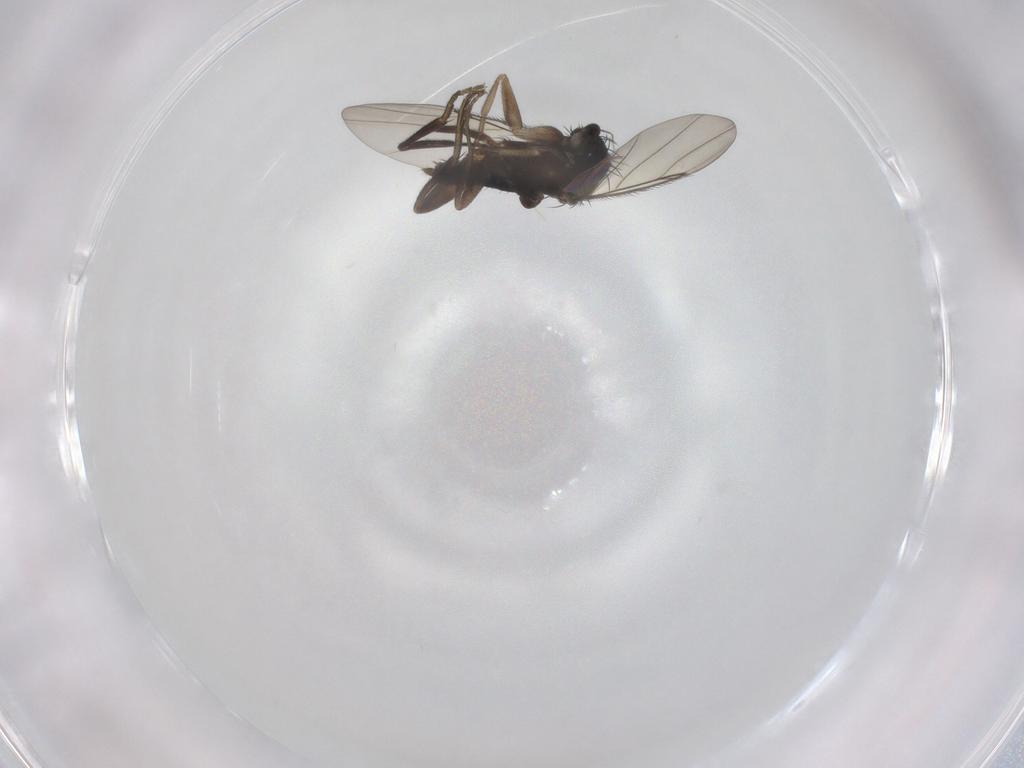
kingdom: Animalia
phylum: Arthropoda
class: Insecta
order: Diptera
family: Phoridae
